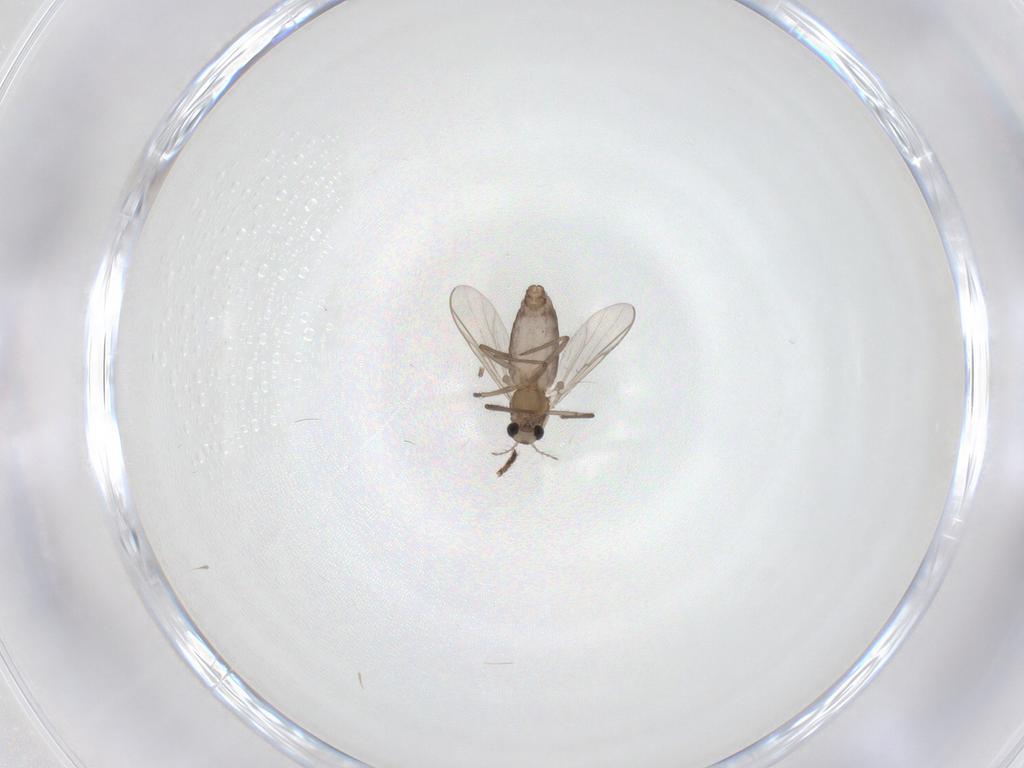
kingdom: Animalia
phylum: Arthropoda
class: Insecta
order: Diptera
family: Chironomidae
